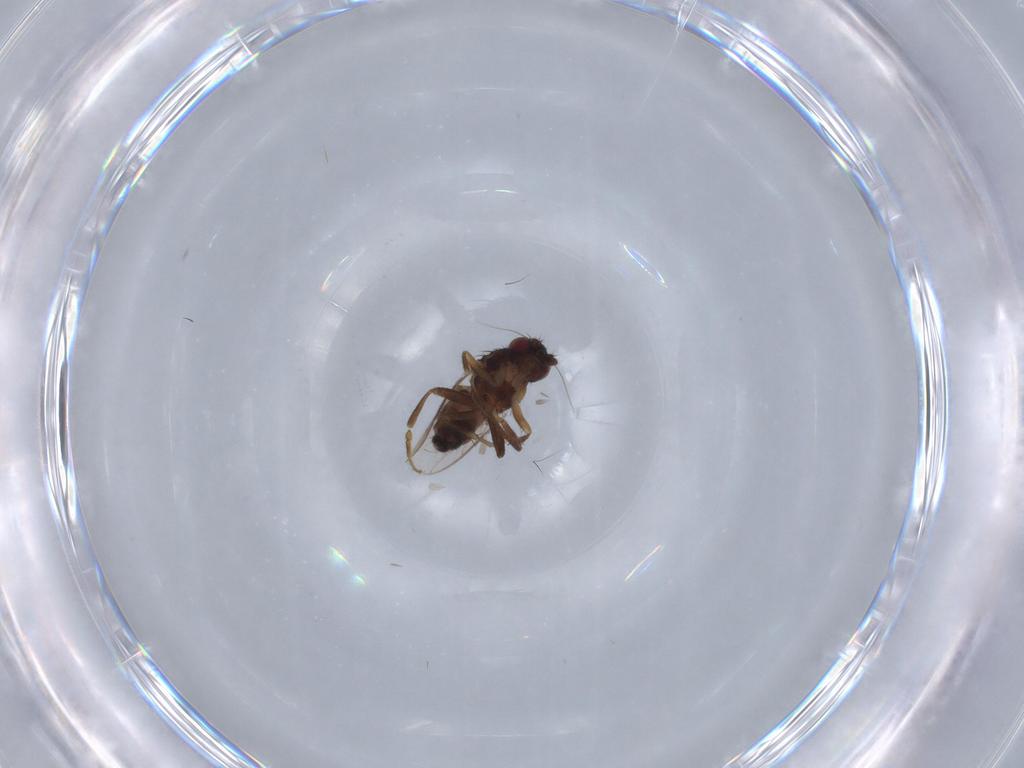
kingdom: Animalia
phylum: Arthropoda
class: Insecta
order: Diptera
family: Sphaeroceridae
